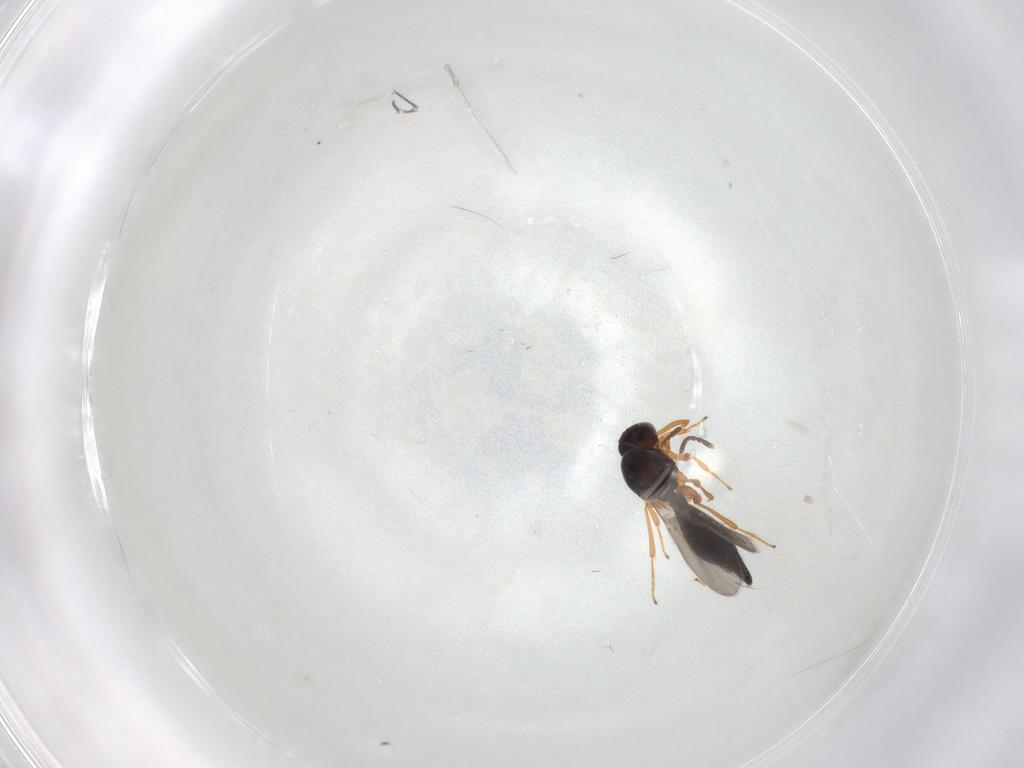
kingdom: Animalia
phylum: Arthropoda
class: Insecta
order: Hymenoptera
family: Platygastridae
